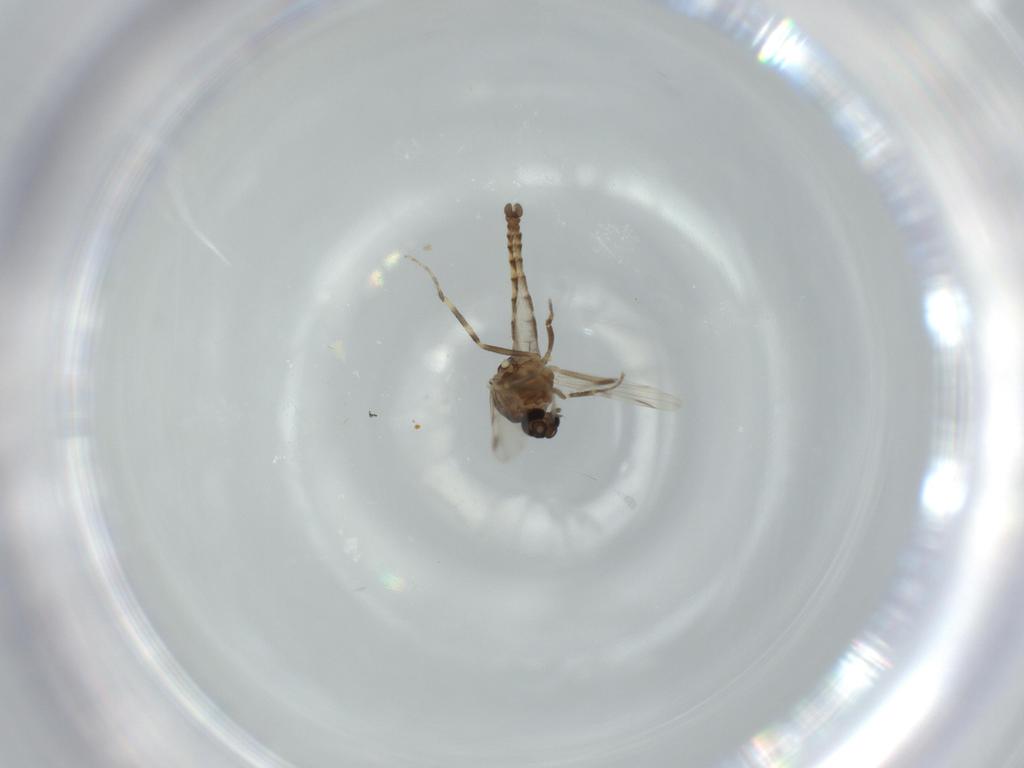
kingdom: Animalia
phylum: Arthropoda
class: Insecta
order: Diptera
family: Ceratopogonidae
